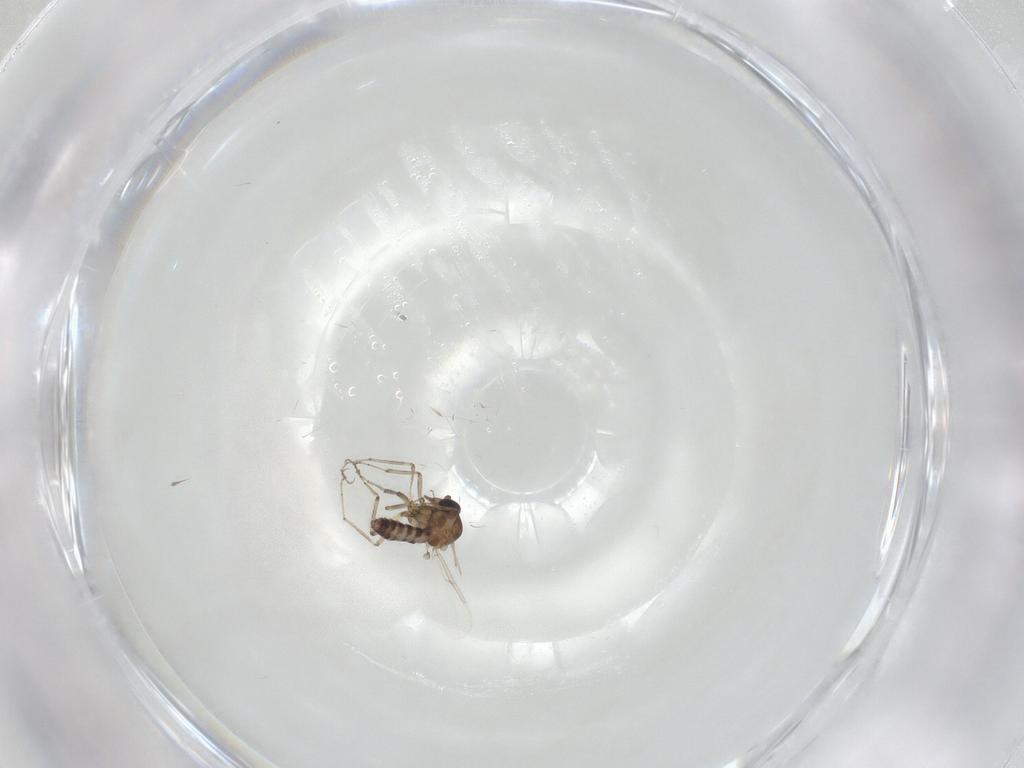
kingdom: Animalia
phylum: Arthropoda
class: Insecta
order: Diptera
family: Ceratopogonidae
